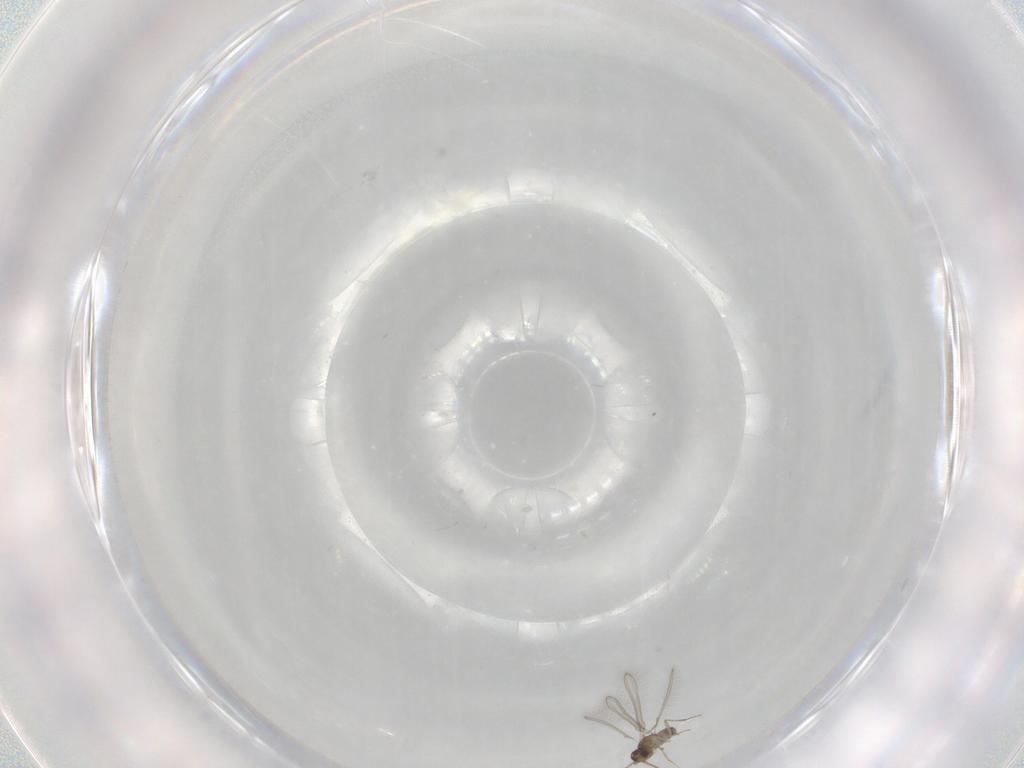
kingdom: Animalia
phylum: Arthropoda
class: Insecta
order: Hymenoptera
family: Mymaridae
